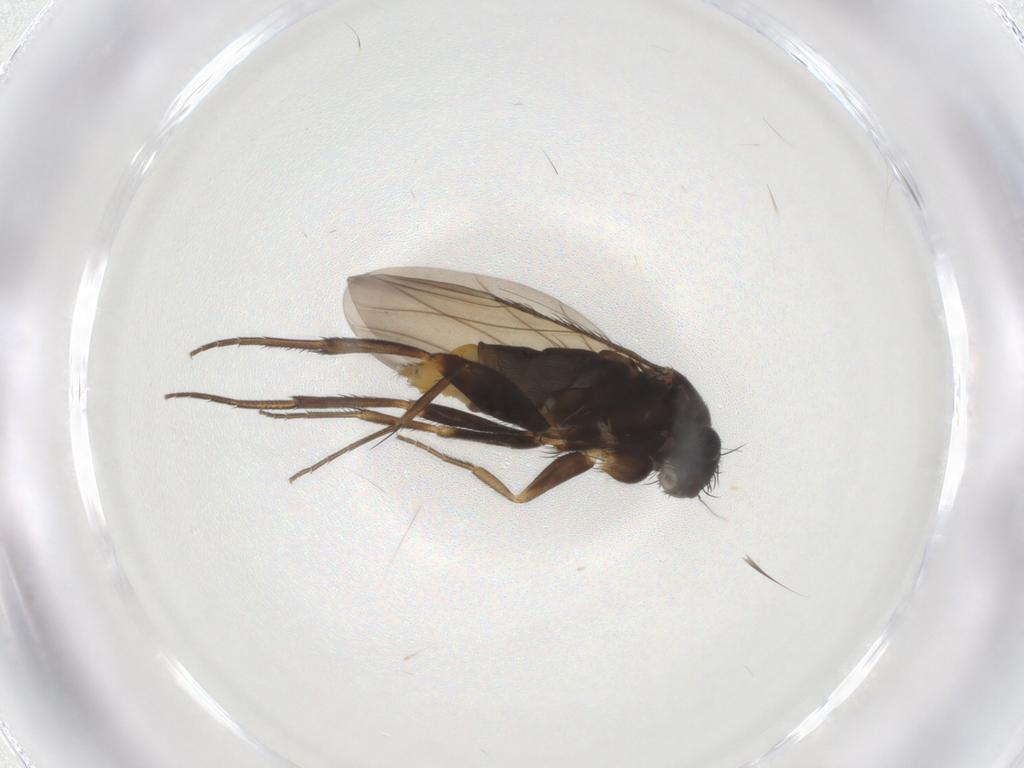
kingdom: Animalia
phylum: Arthropoda
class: Insecta
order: Diptera
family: Phoridae
